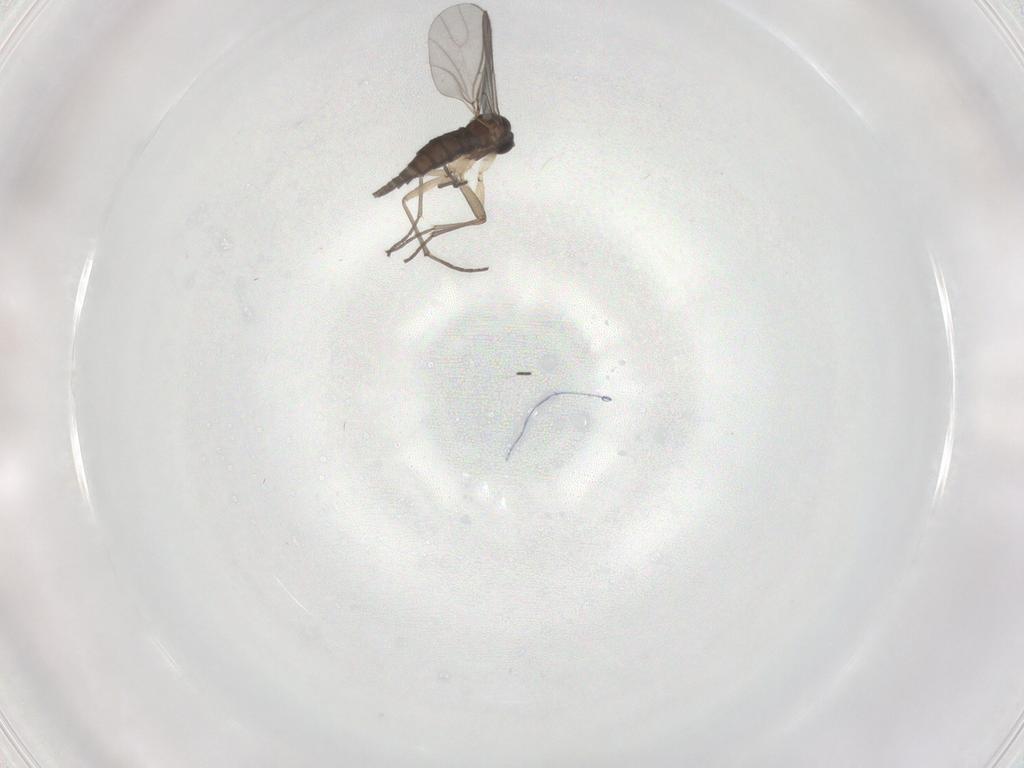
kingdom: Animalia
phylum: Arthropoda
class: Insecta
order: Diptera
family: Sciaridae
